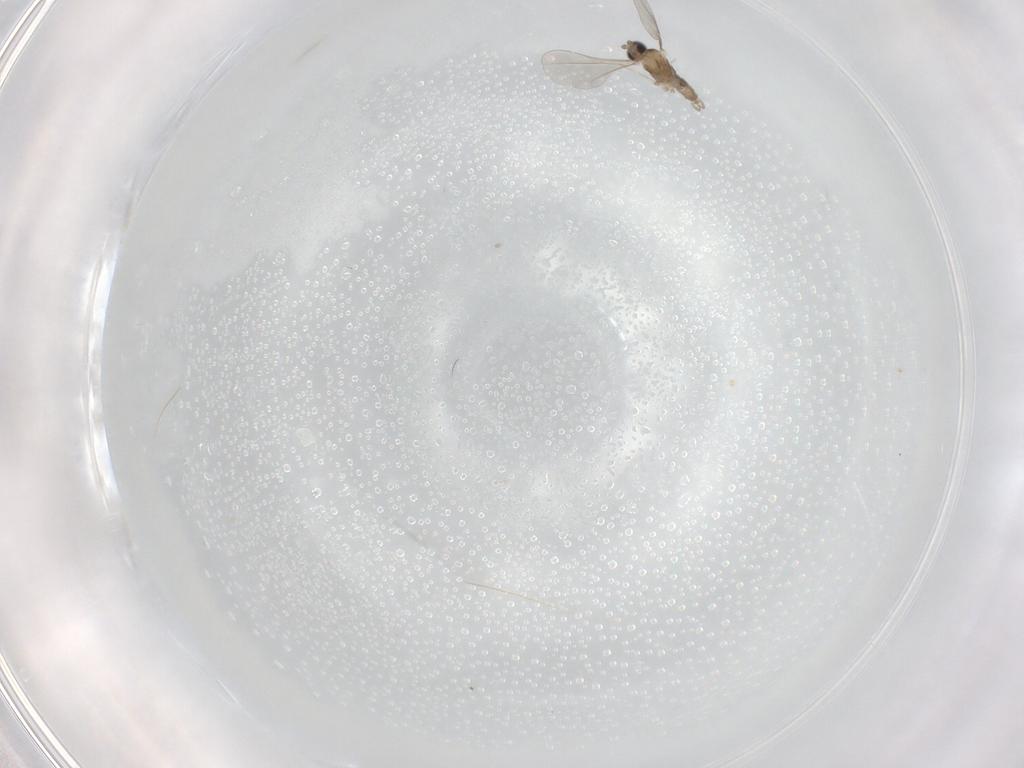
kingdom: Animalia
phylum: Arthropoda
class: Insecta
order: Diptera
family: Cecidomyiidae
